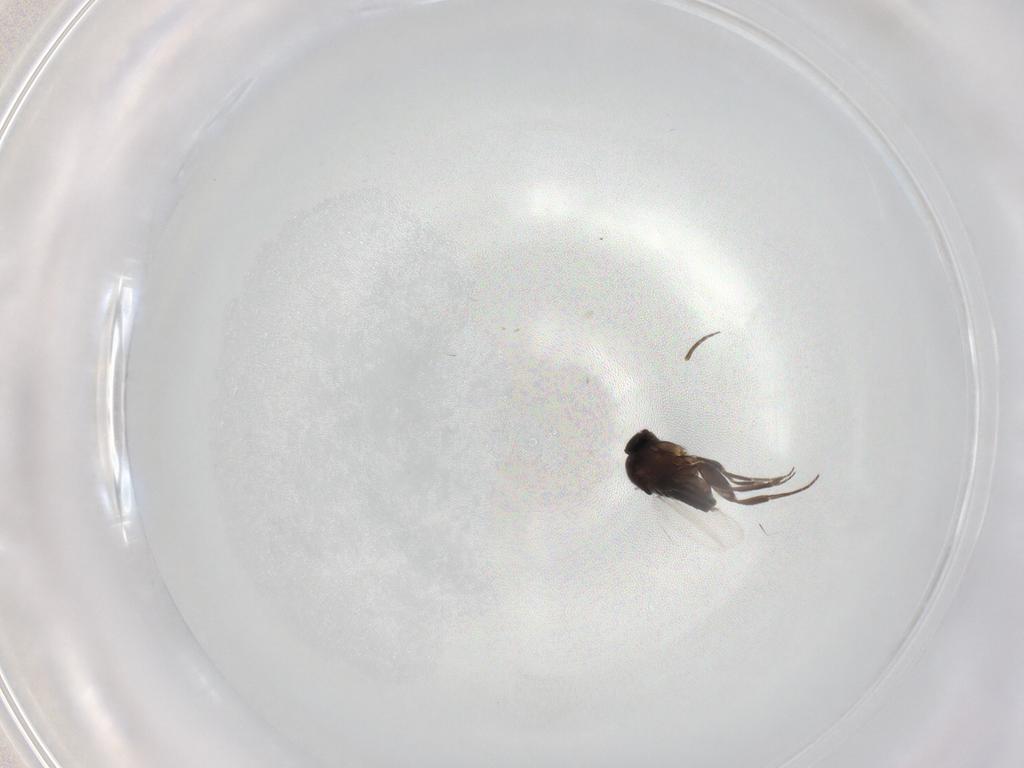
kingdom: Animalia
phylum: Arthropoda
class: Insecta
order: Diptera
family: Phoridae
